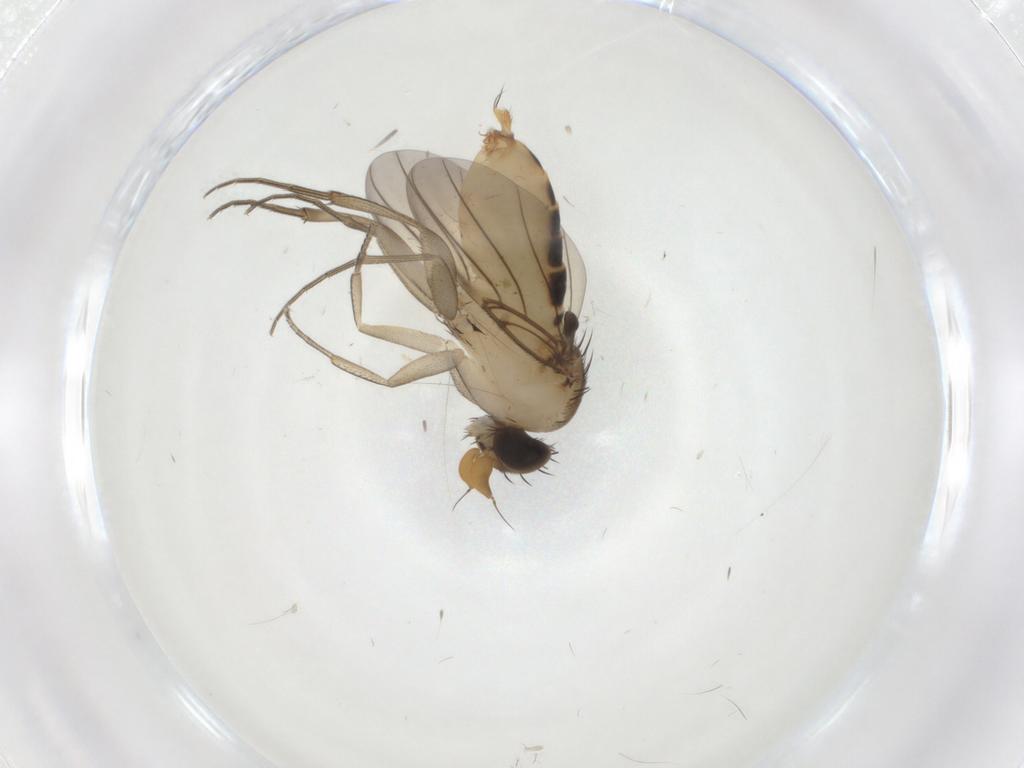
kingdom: Animalia
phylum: Arthropoda
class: Insecta
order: Diptera
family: Phoridae
